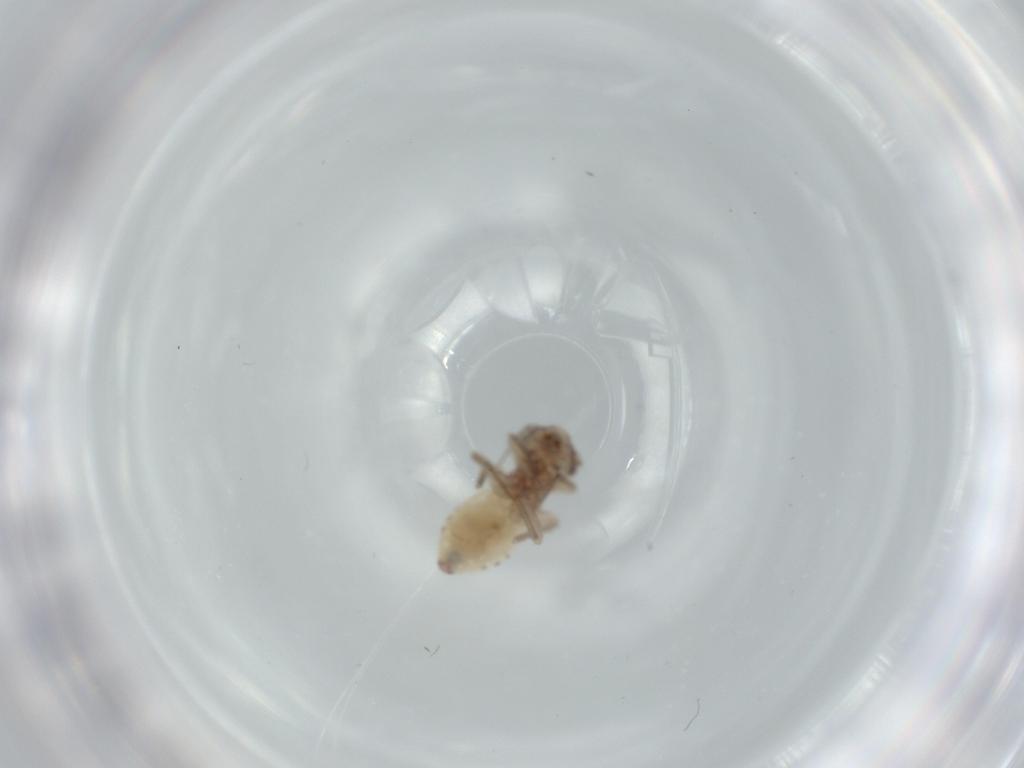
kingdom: Animalia
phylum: Arthropoda
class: Insecta
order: Psocodea
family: Lepidopsocidae
